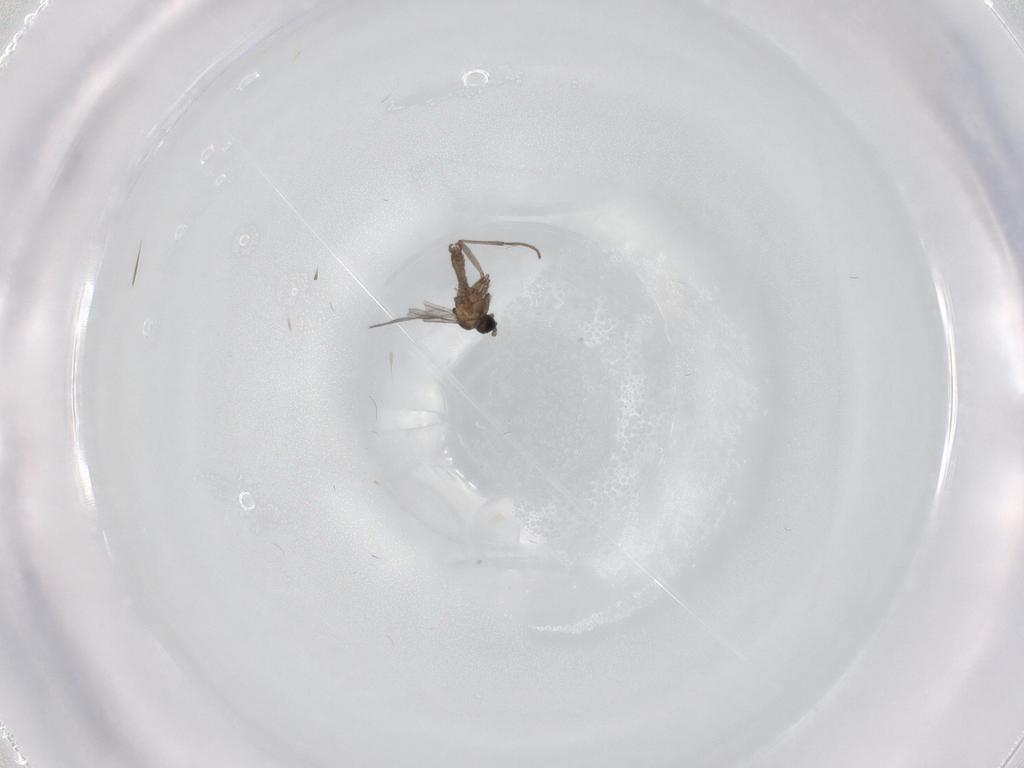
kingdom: Animalia
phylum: Arthropoda
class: Insecta
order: Diptera
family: Sciaridae
